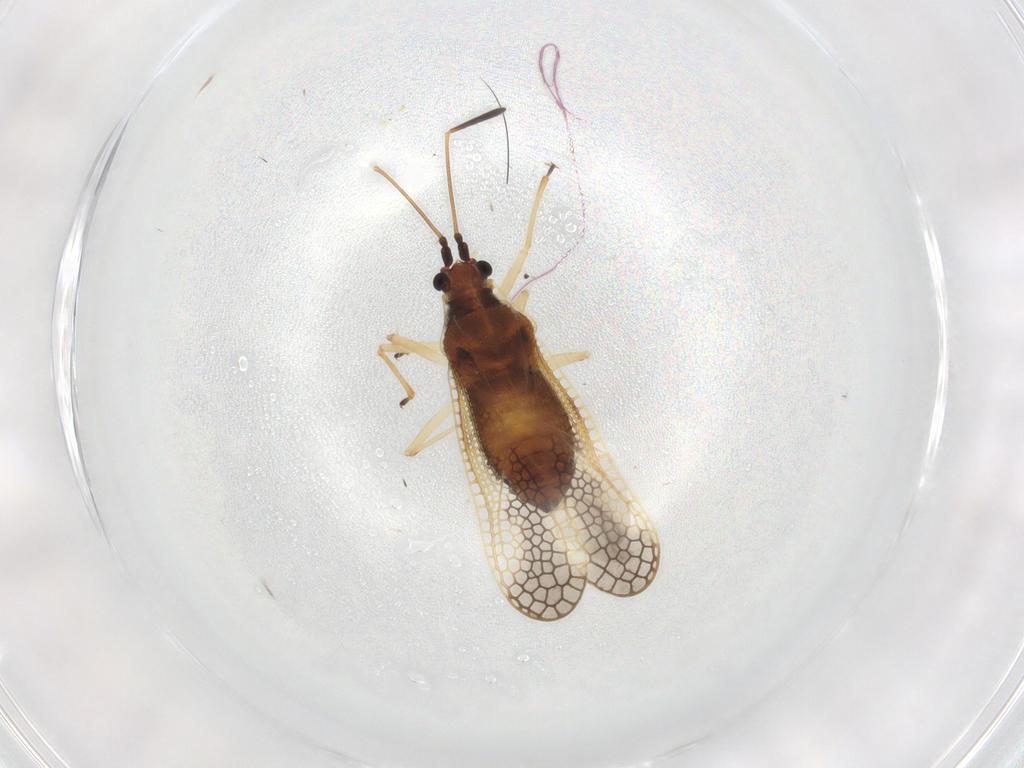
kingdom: Animalia
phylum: Arthropoda
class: Insecta
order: Hemiptera
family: Tingidae
